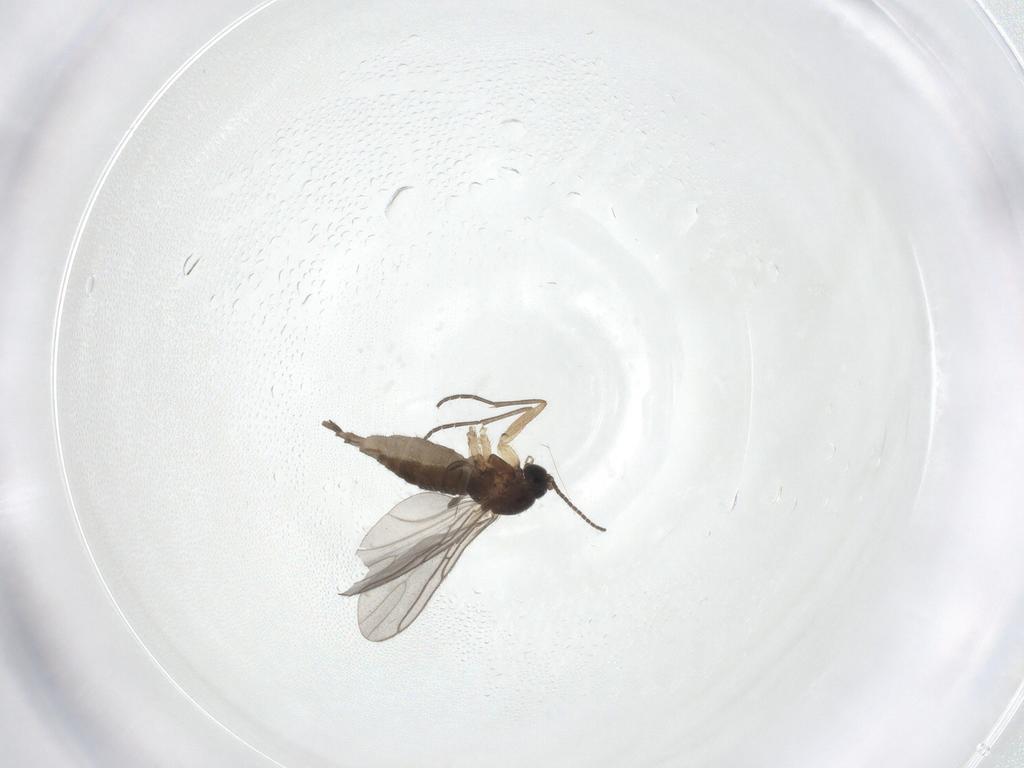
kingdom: Animalia
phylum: Arthropoda
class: Insecta
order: Diptera
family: Sciaridae
